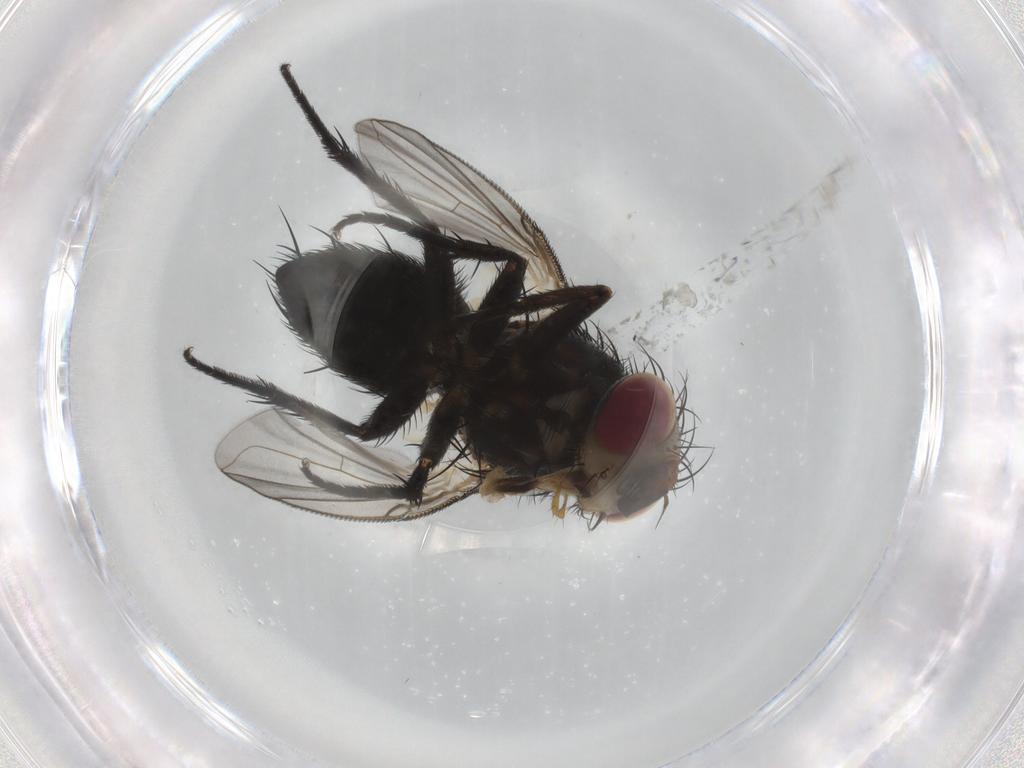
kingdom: Animalia
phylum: Arthropoda
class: Insecta
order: Diptera
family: Tachinidae
